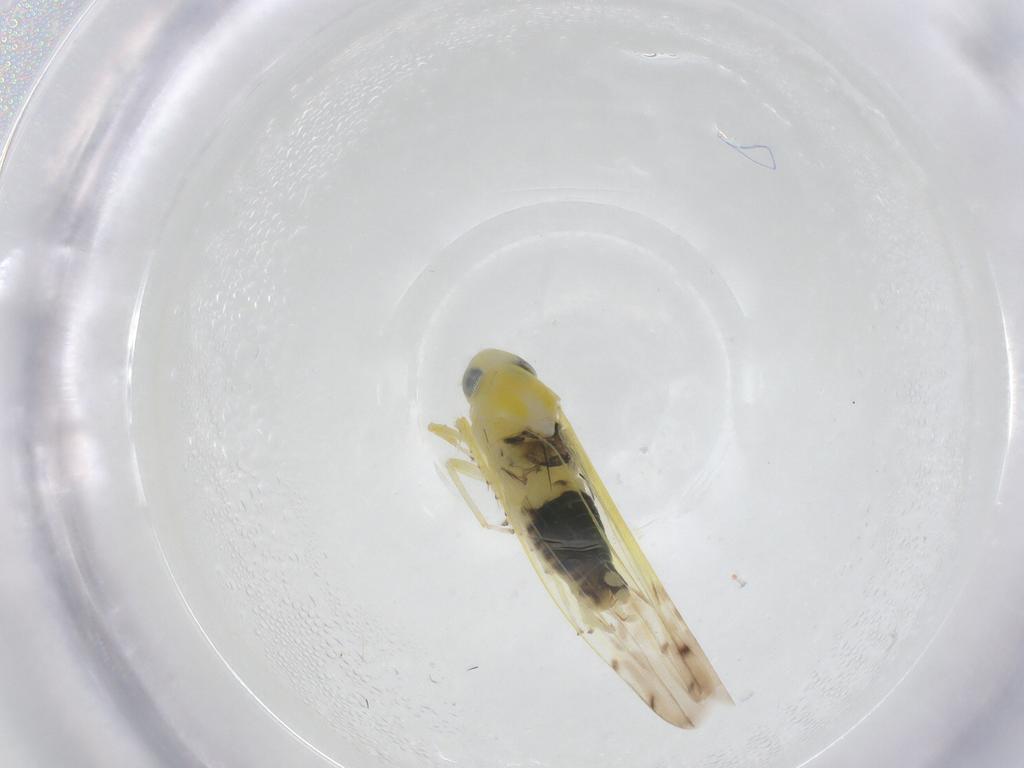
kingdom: Animalia
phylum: Arthropoda
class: Insecta
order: Hemiptera
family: Cicadellidae
